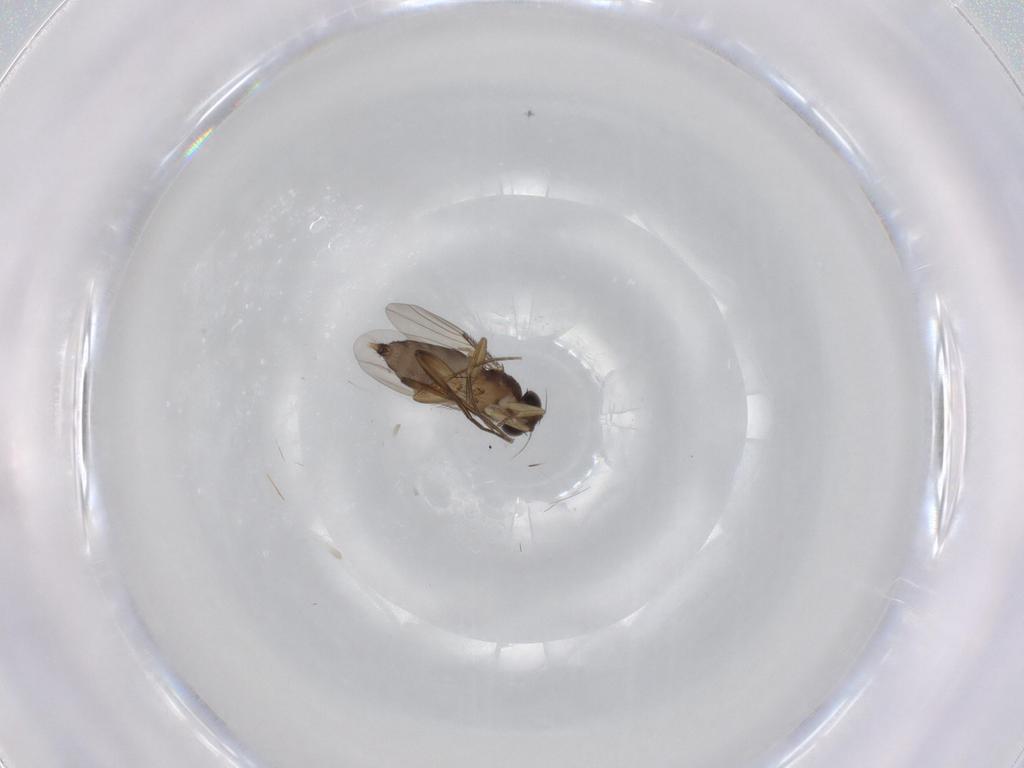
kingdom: Animalia
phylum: Arthropoda
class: Insecta
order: Diptera
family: Phoridae
